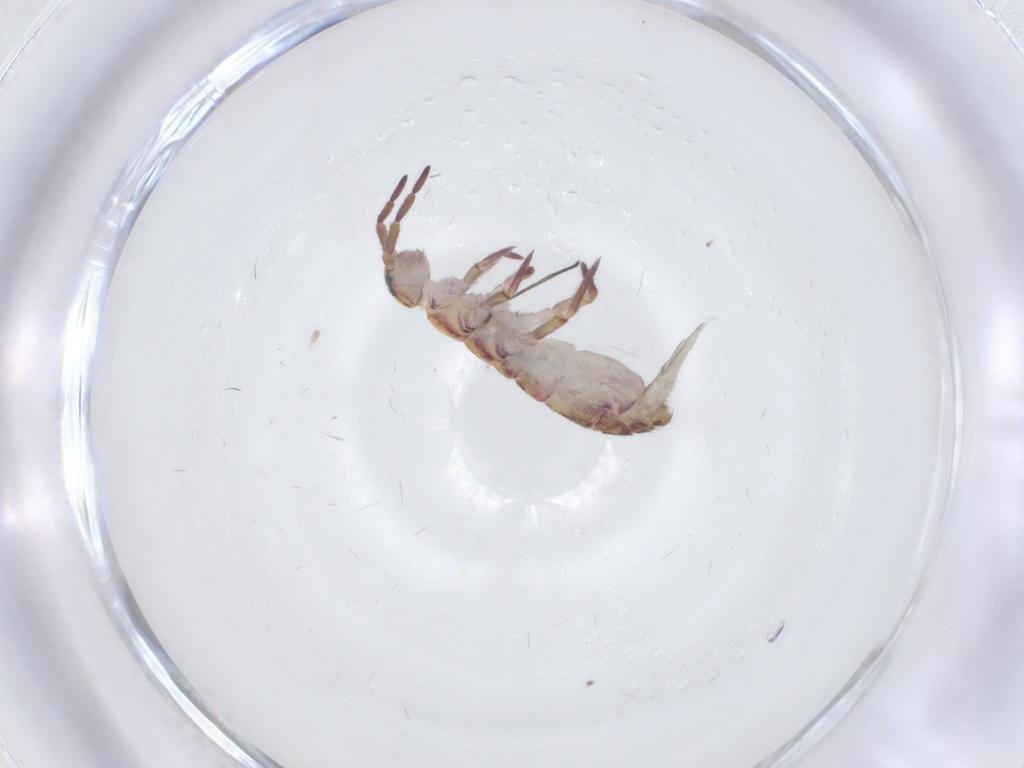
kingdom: Animalia
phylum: Arthropoda
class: Collembola
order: Entomobryomorpha
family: Isotomidae
